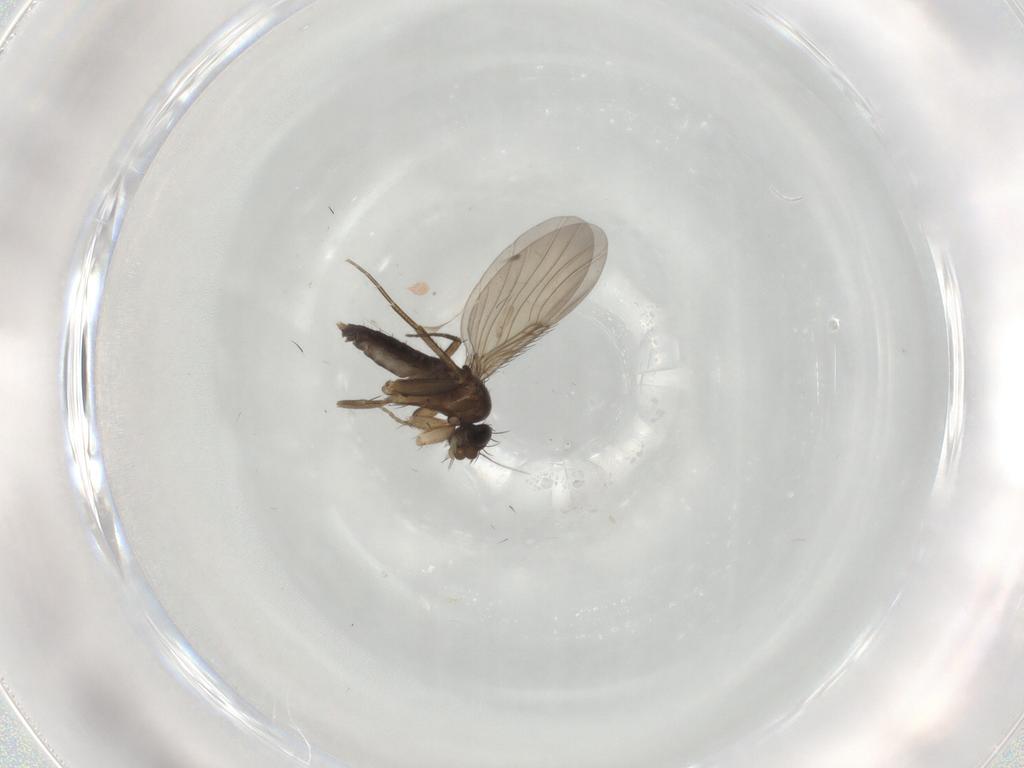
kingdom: Animalia
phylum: Arthropoda
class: Insecta
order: Diptera
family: Phoridae
